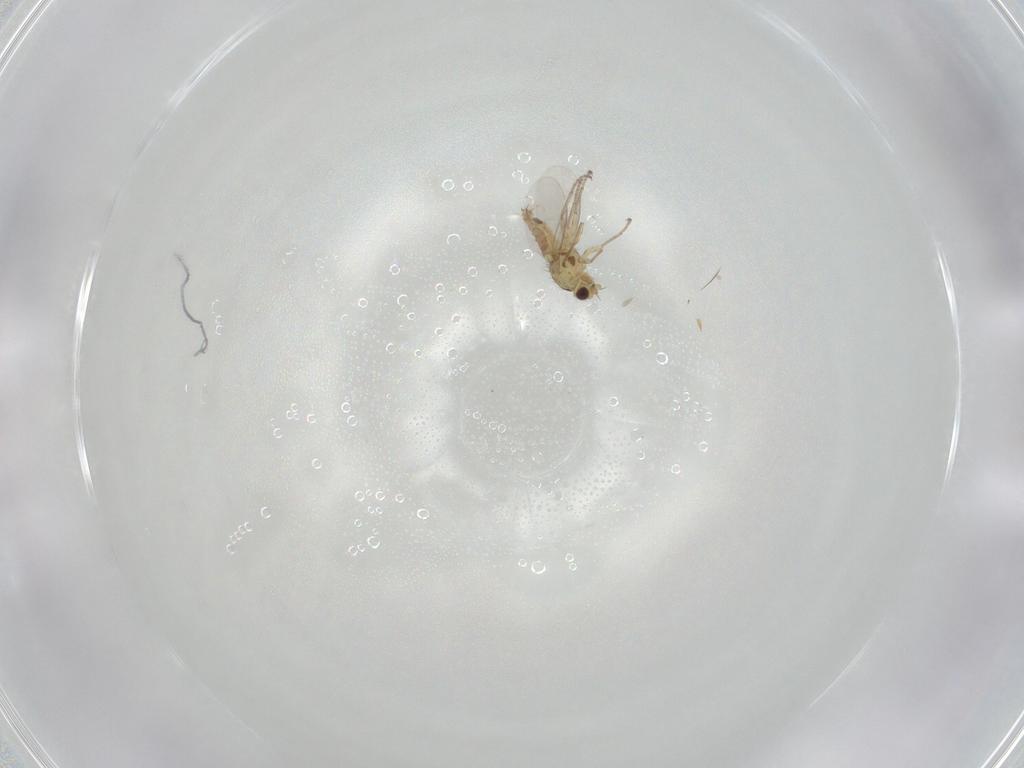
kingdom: Animalia
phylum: Arthropoda
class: Insecta
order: Diptera
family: Agromyzidae
